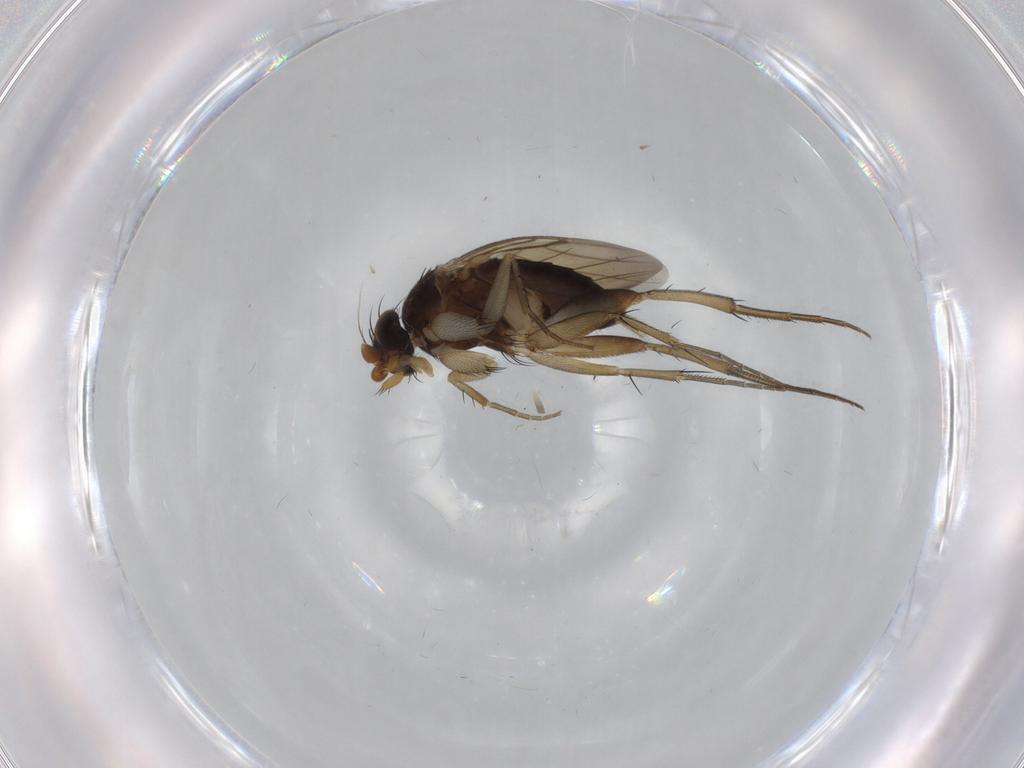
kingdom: Animalia
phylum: Arthropoda
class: Insecta
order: Diptera
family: Phoridae
